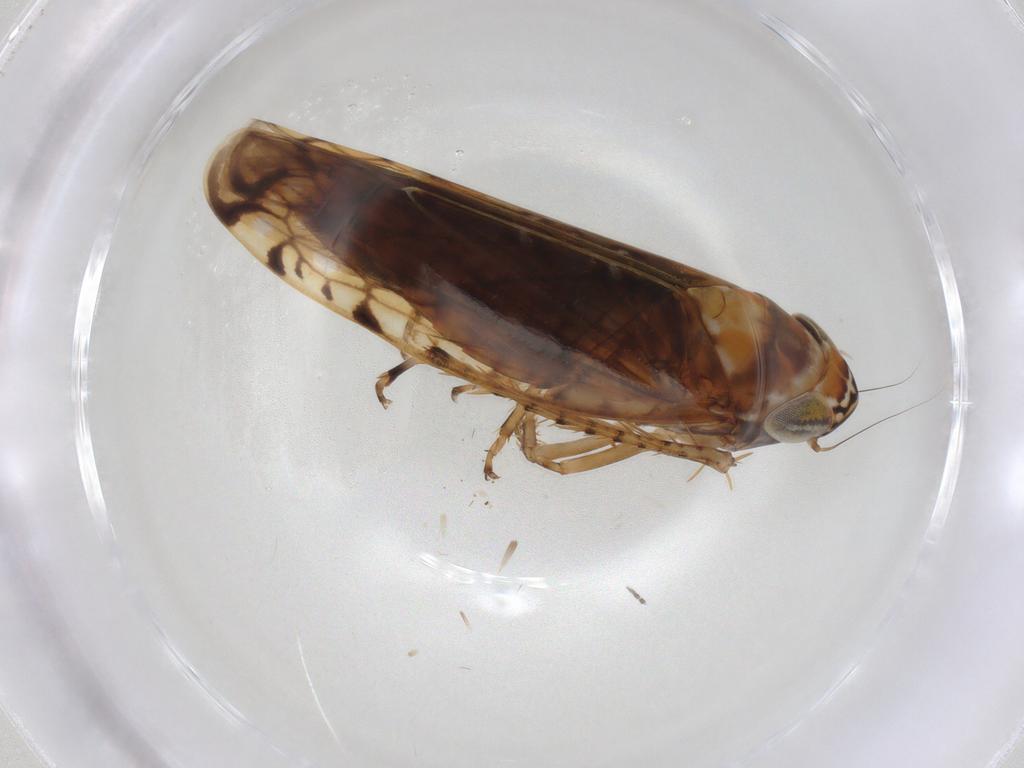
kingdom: Animalia
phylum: Arthropoda
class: Insecta
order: Hemiptera
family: Cicadellidae
